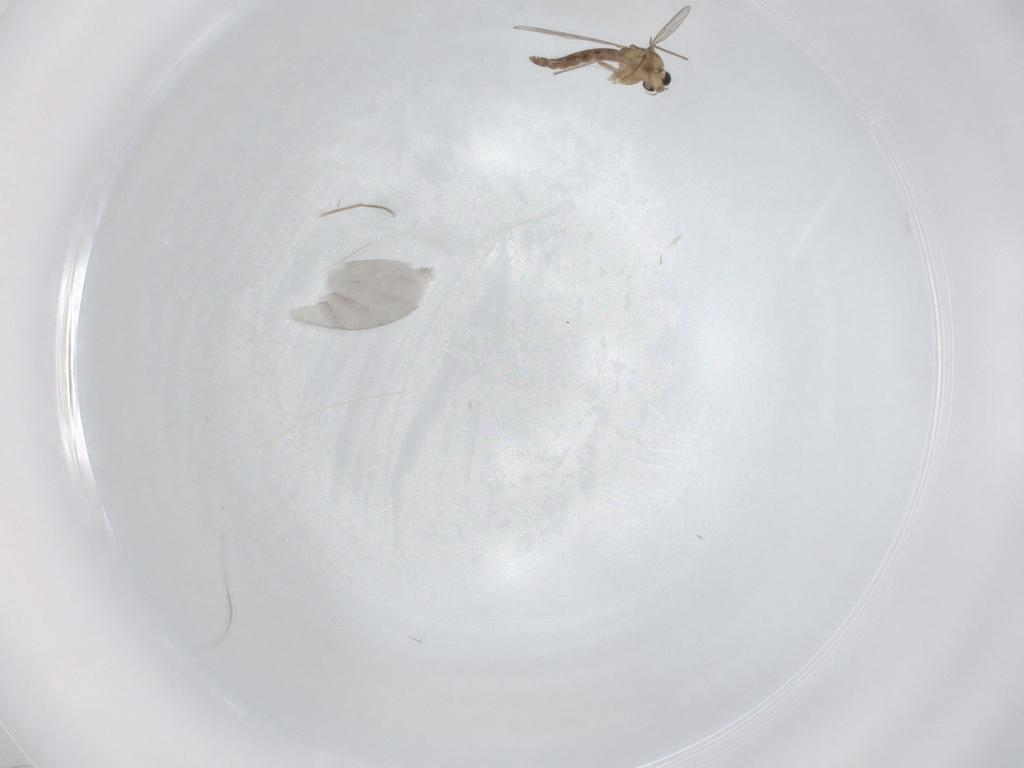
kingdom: Animalia
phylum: Arthropoda
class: Insecta
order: Diptera
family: Chironomidae
